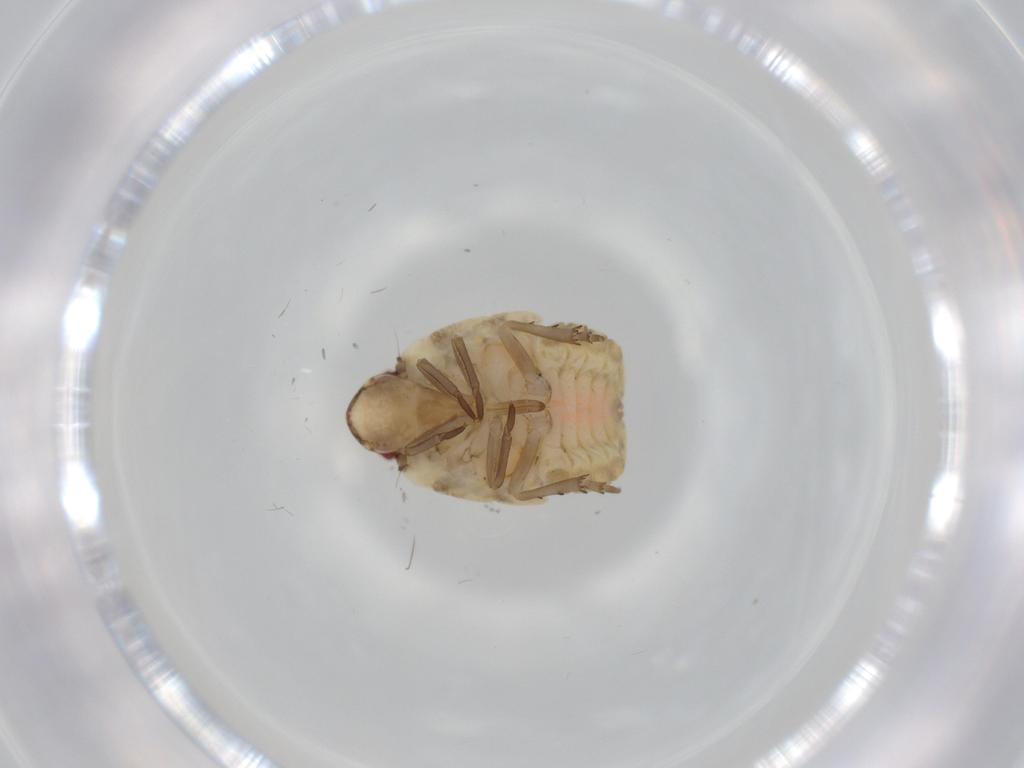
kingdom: Animalia
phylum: Arthropoda
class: Insecta
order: Hemiptera
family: Flatidae
